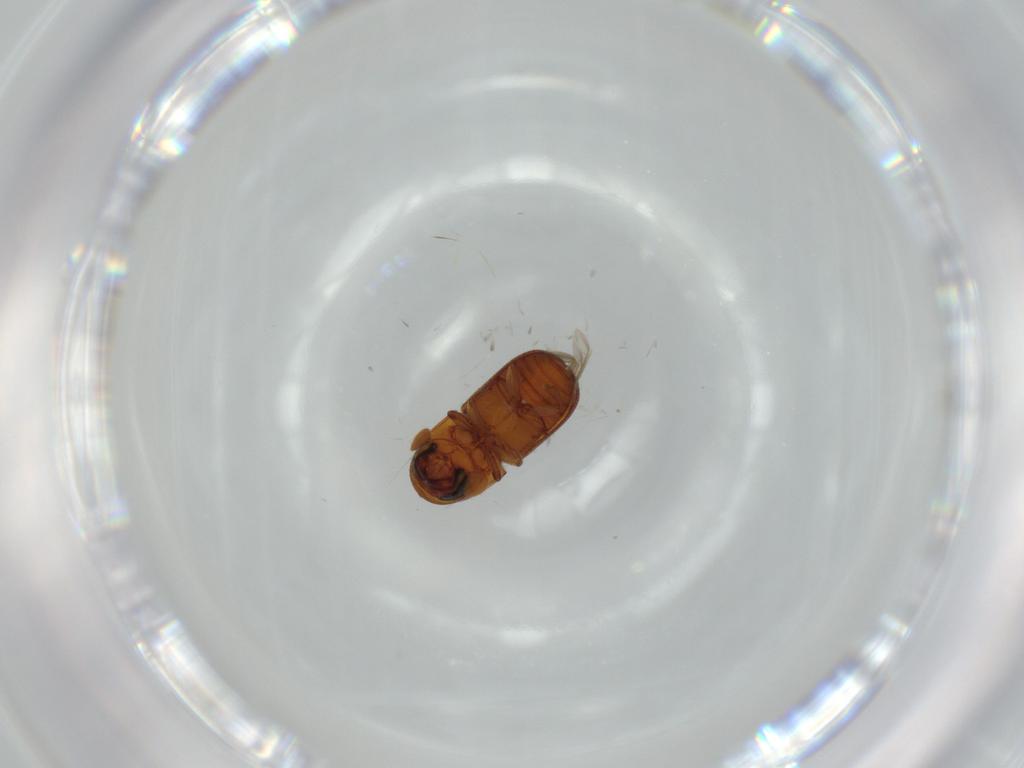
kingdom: Animalia
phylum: Arthropoda
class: Insecta
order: Coleoptera
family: Curculionidae
